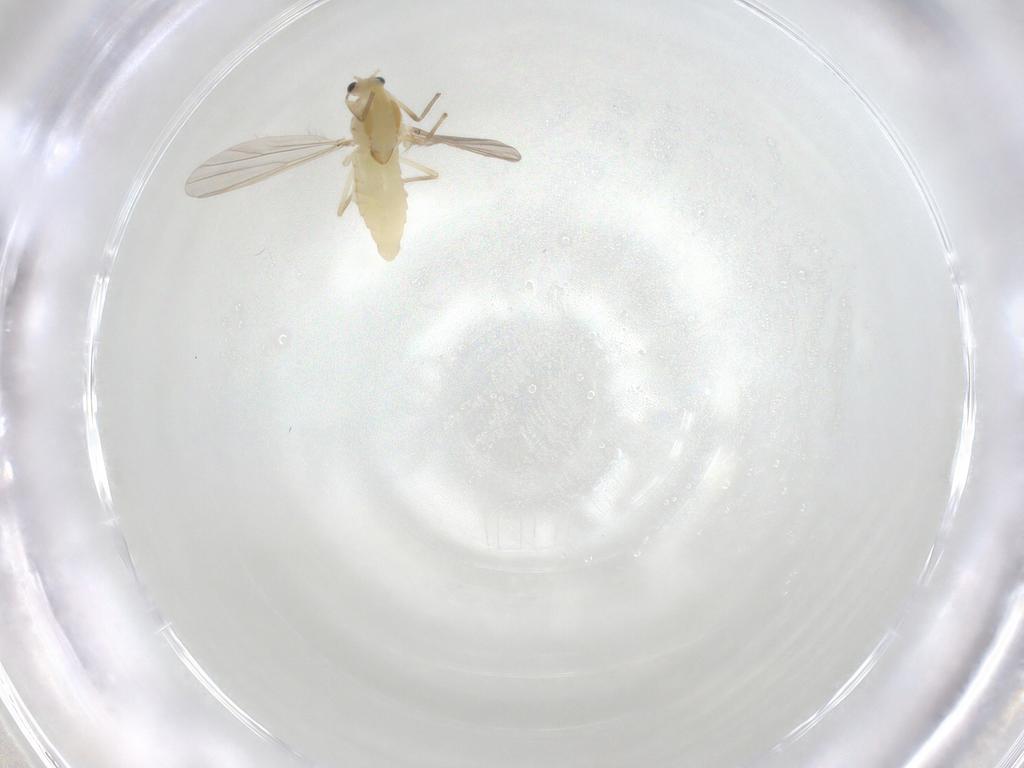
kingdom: Animalia
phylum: Arthropoda
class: Insecta
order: Diptera
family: Chironomidae
